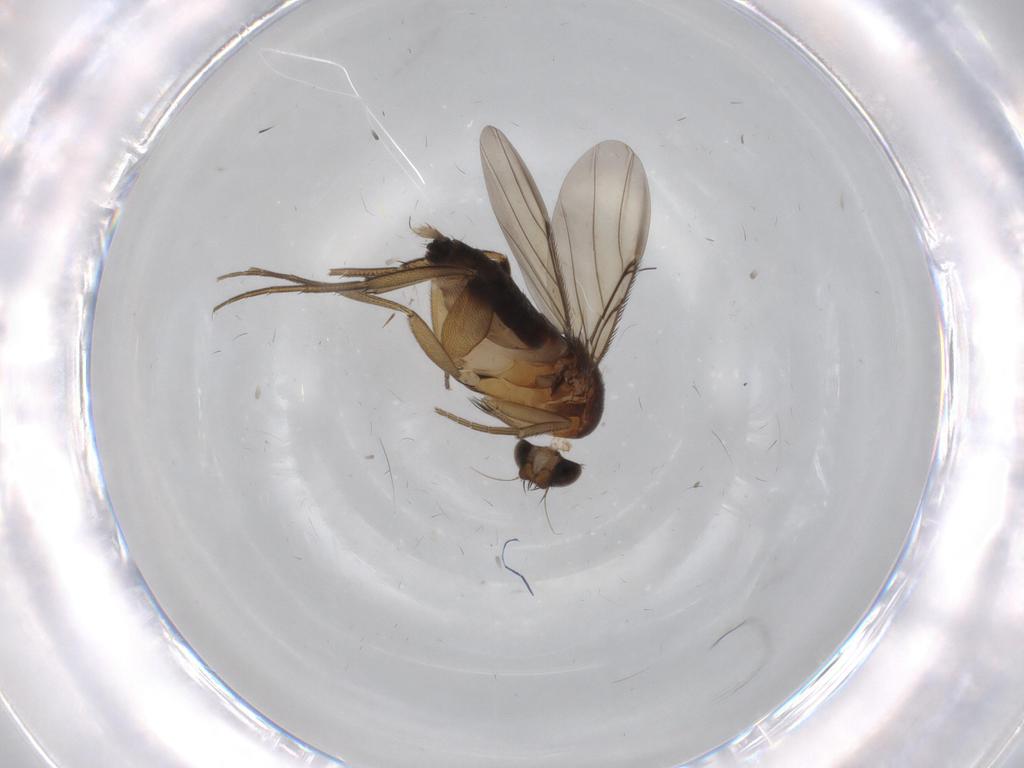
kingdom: Animalia
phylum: Arthropoda
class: Insecta
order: Diptera
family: Phoridae
